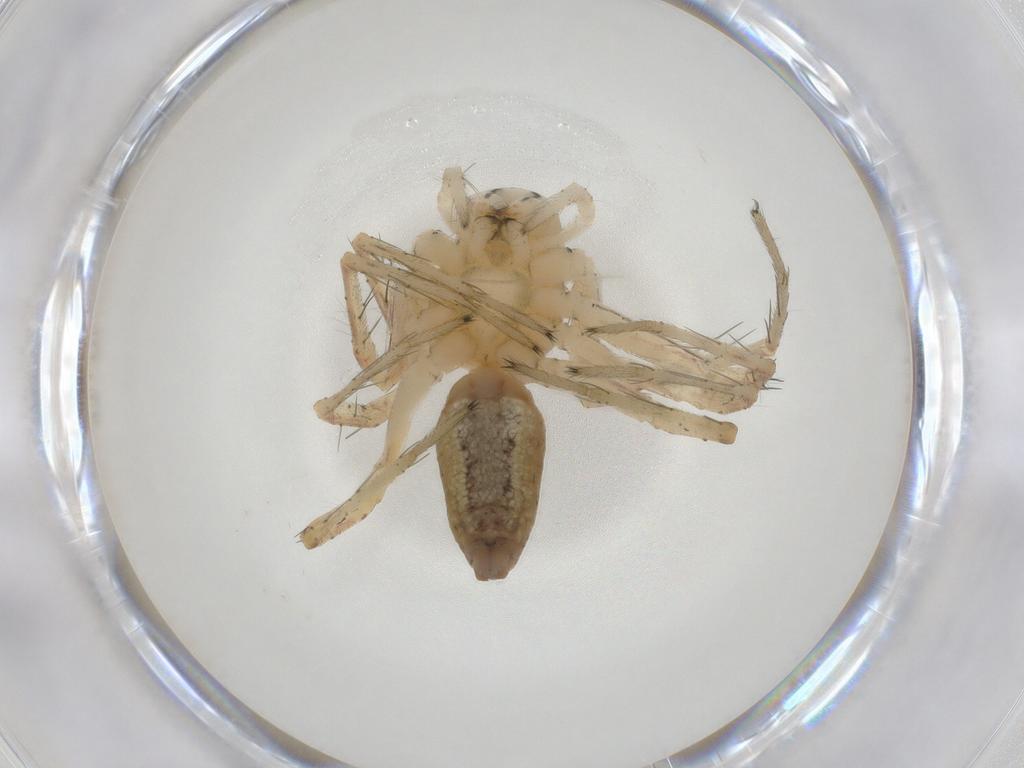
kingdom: Animalia
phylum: Arthropoda
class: Arachnida
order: Araneae
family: Oxyopidae
